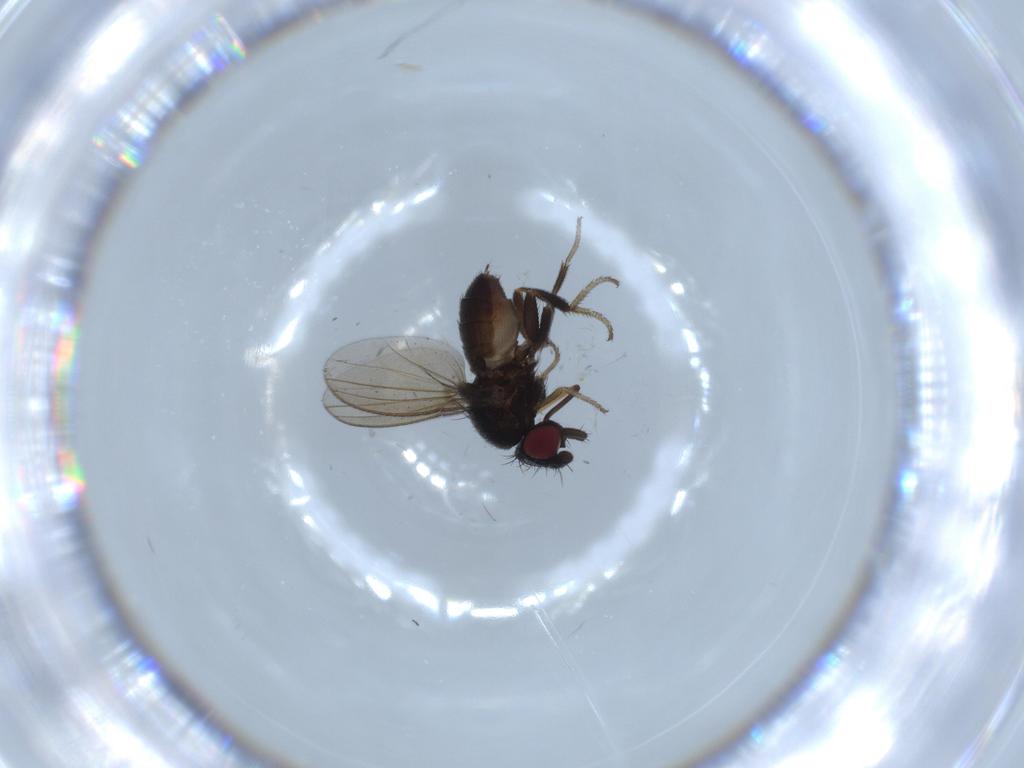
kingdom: Animalia
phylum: Arthropoda
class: Insecta
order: Diptera
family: Milichiidae
